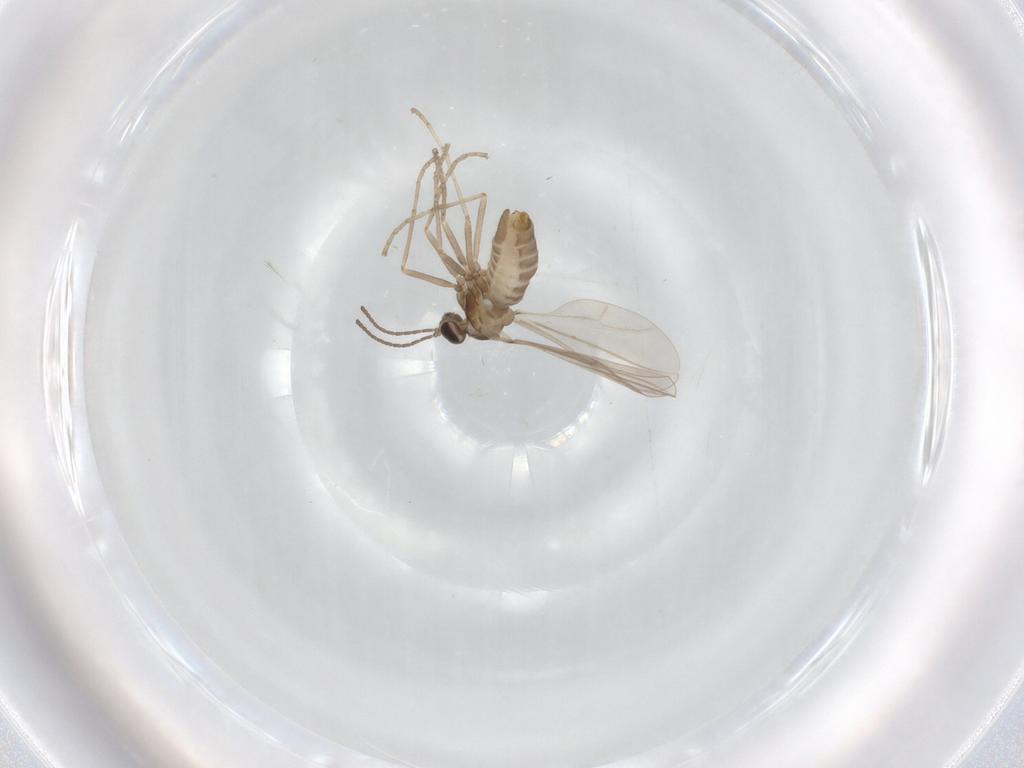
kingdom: Animalia
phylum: Arthropoda
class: Insecta
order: Diptera
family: Cecidomyiidae
